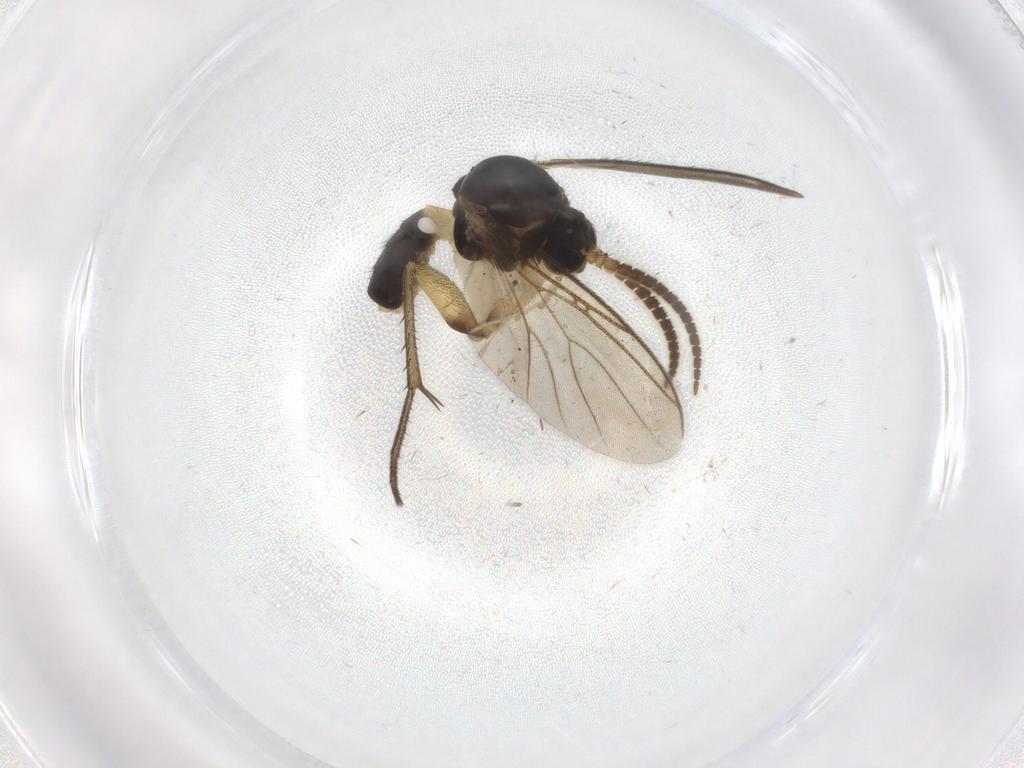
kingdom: Animalia
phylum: Arthropoda
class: Insecta
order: Diptera
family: Mycetophilidae
